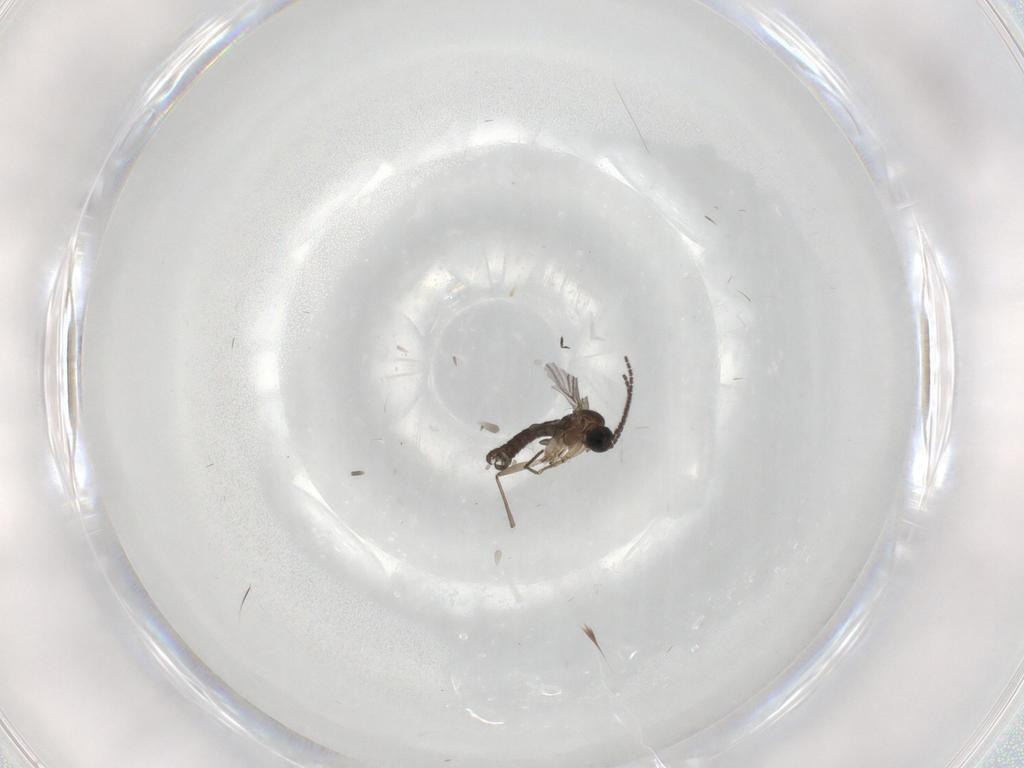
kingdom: Animalia
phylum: Arthropoda
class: Insecta
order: Diptera
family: Sciaridae
